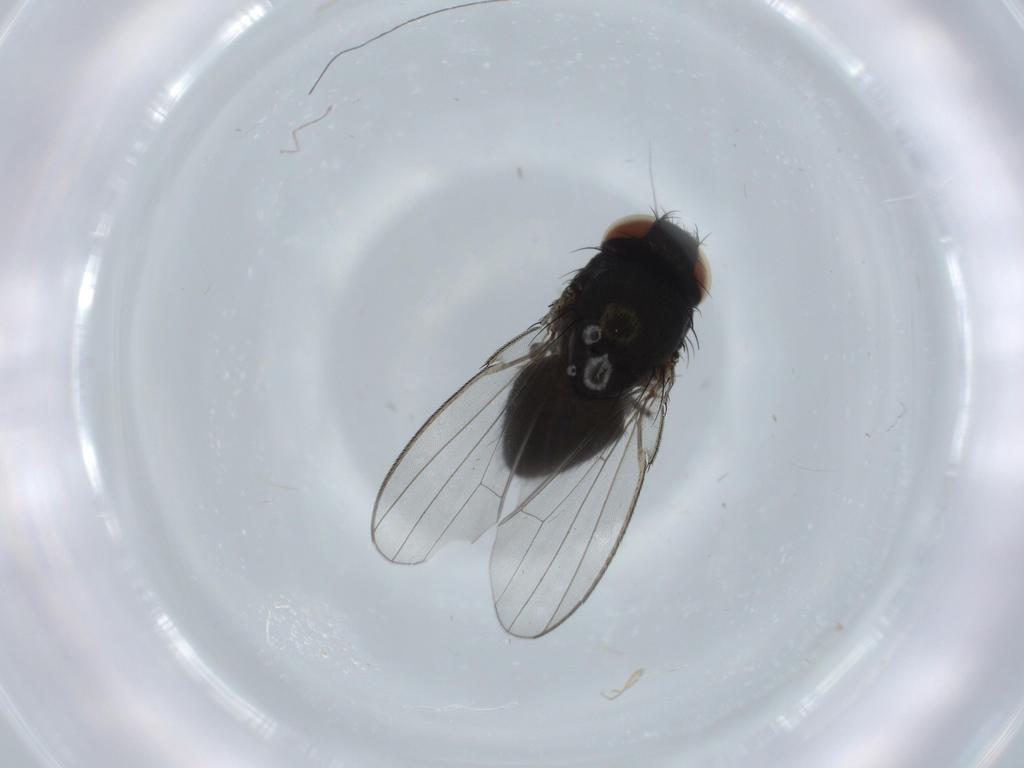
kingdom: Animalia
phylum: Arthropoda
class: Insecta
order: Diptera
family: Milichiidae
